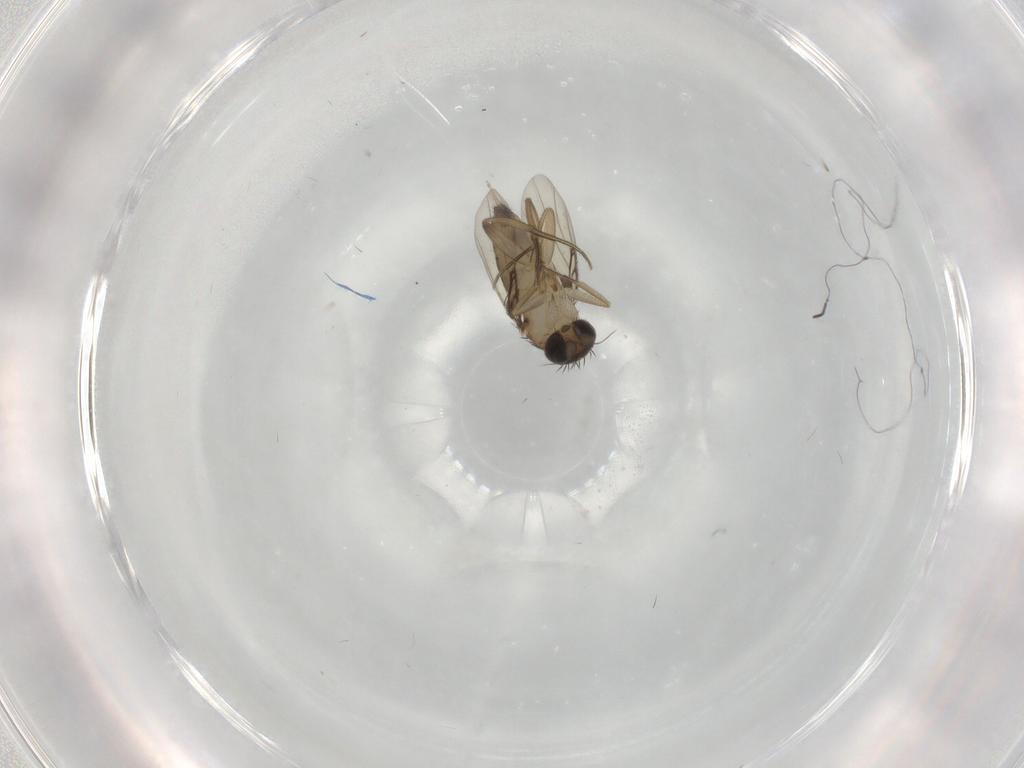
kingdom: Animalia
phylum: Arthropoda
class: Insecta
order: Diptera
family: Phoridae
